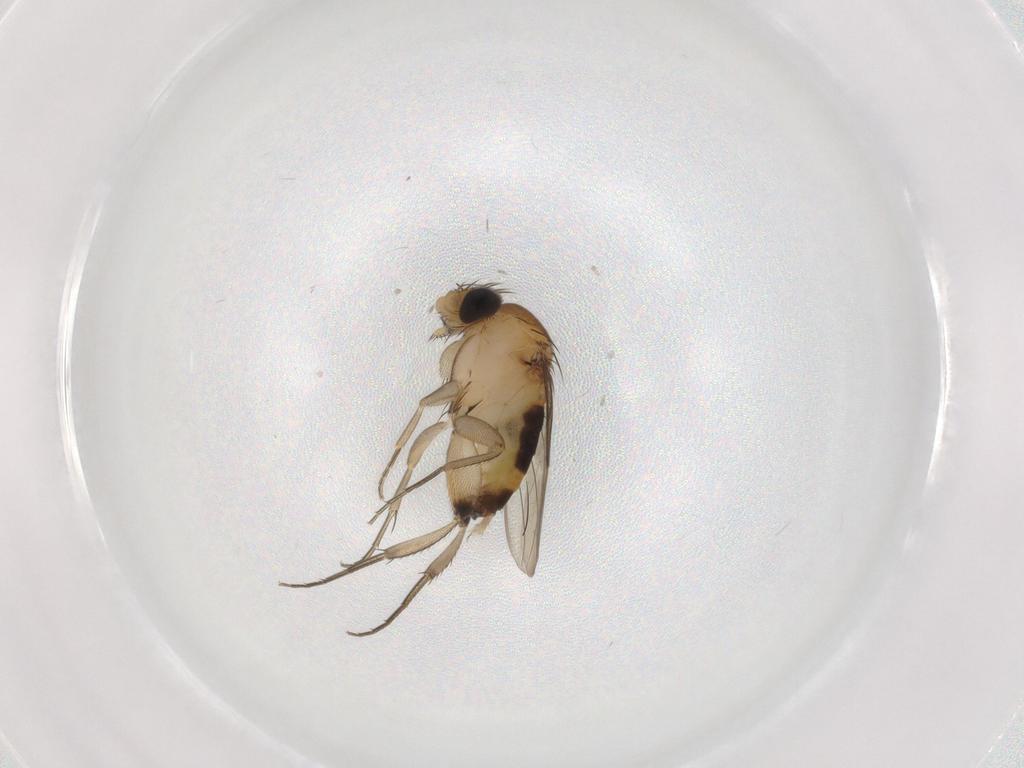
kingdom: Animalia
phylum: Arthropoda
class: Insecta
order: Diptera
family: Phoridae
